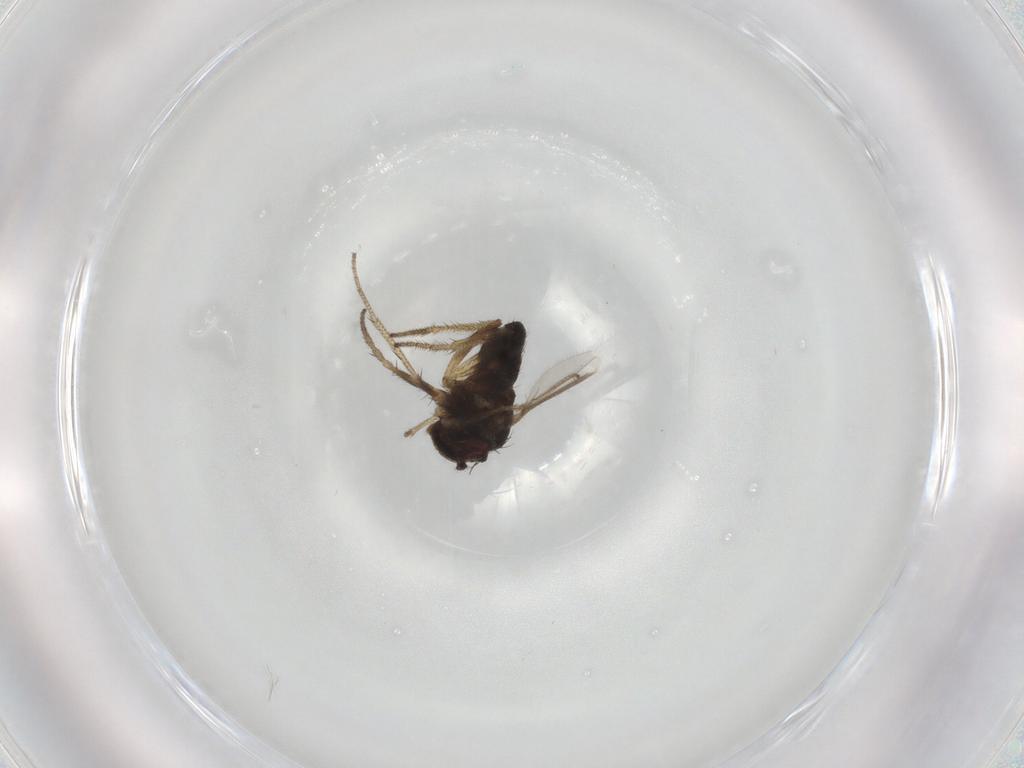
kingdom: Animalia
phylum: Arthropoda
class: Insecta
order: Diptera
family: Dolichopodidae
